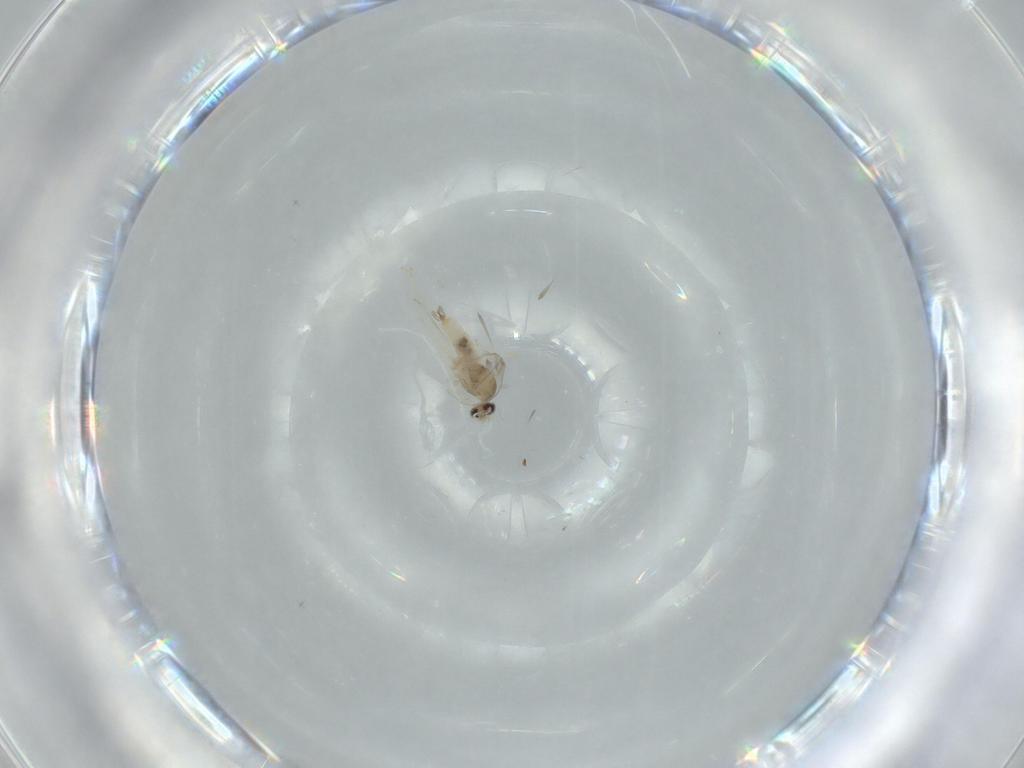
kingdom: Animalia
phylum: Arthropoda
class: Insecta
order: Diptera
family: Cecidomyiidae
